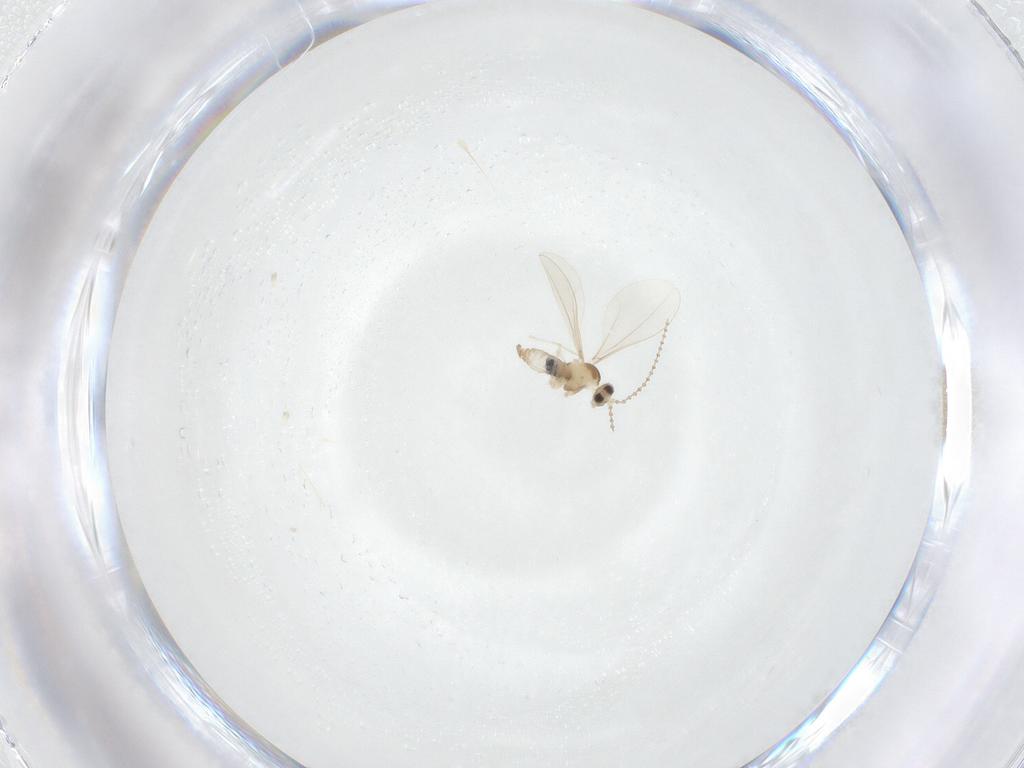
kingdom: Animalia
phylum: Arthropoda
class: Insecta
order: Diptera
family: Cecidomyiidae
